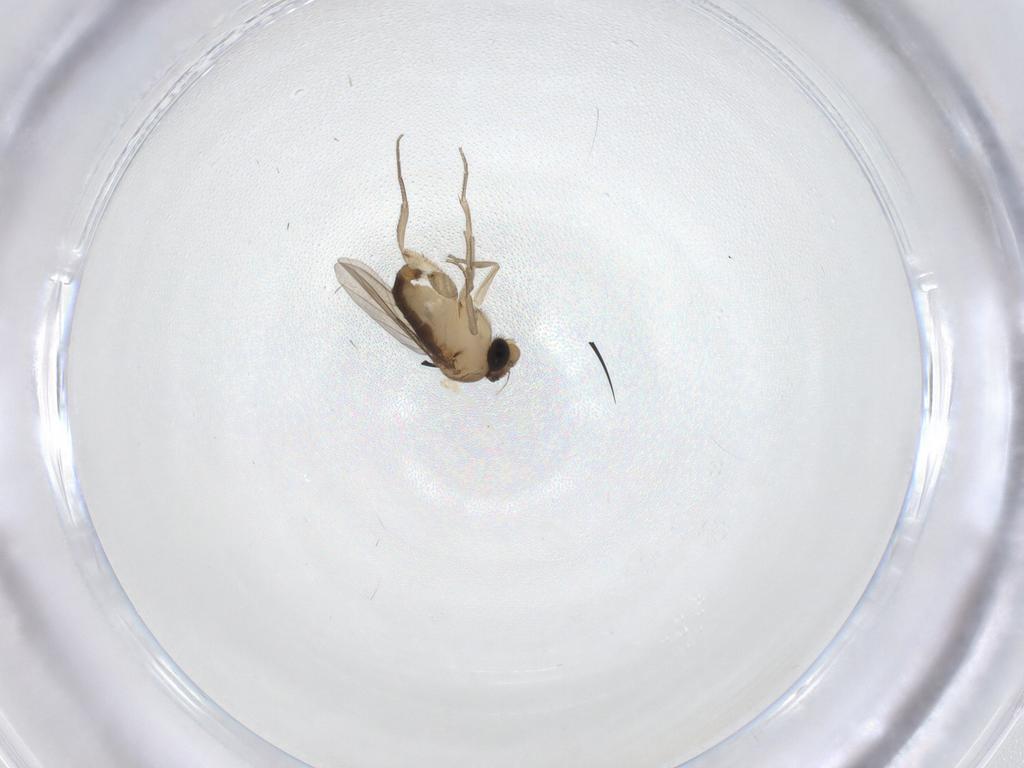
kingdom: Animalia
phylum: Arthropoda
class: Insecta
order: Diptera
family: Phoridae
